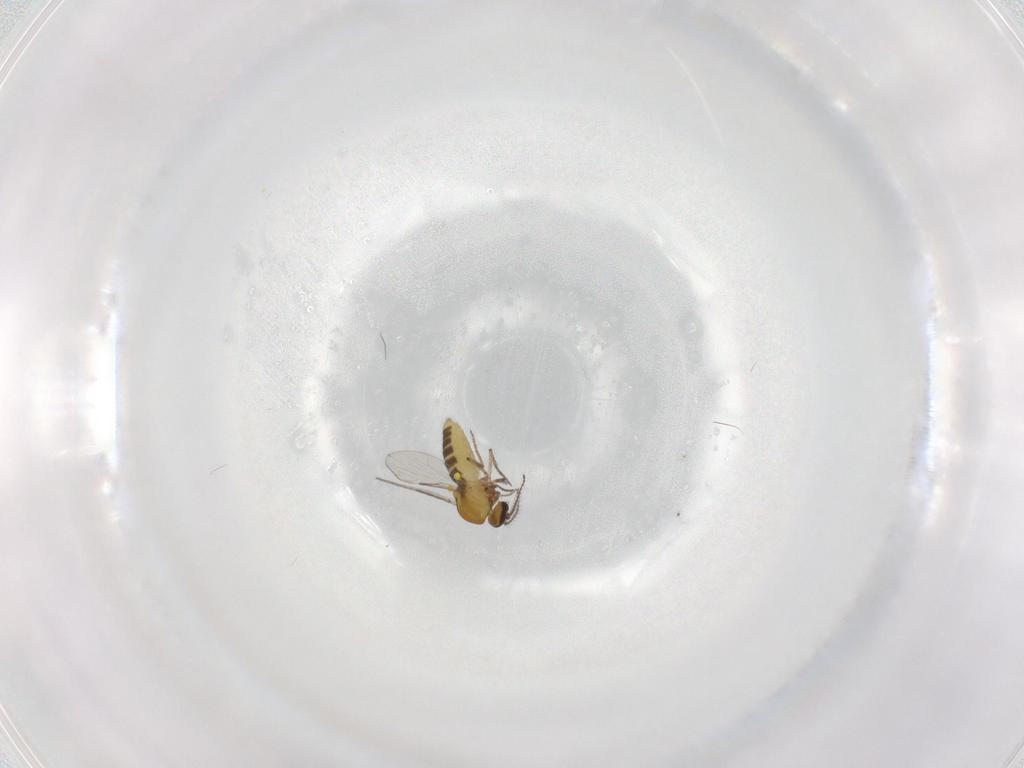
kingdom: Animalia
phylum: Arthropoda
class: Insecta
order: Diptera
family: Ceratopogonidae
